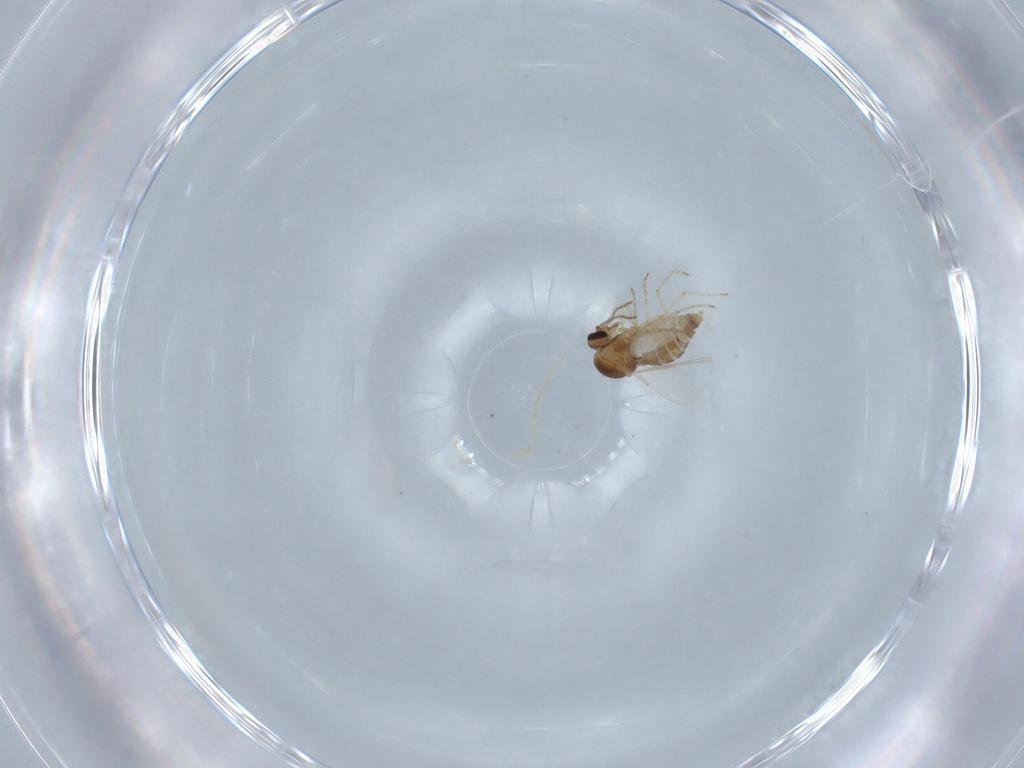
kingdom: Animalia
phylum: Arthropoda
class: Insecta
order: Diptera
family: Ceratopogonidae
